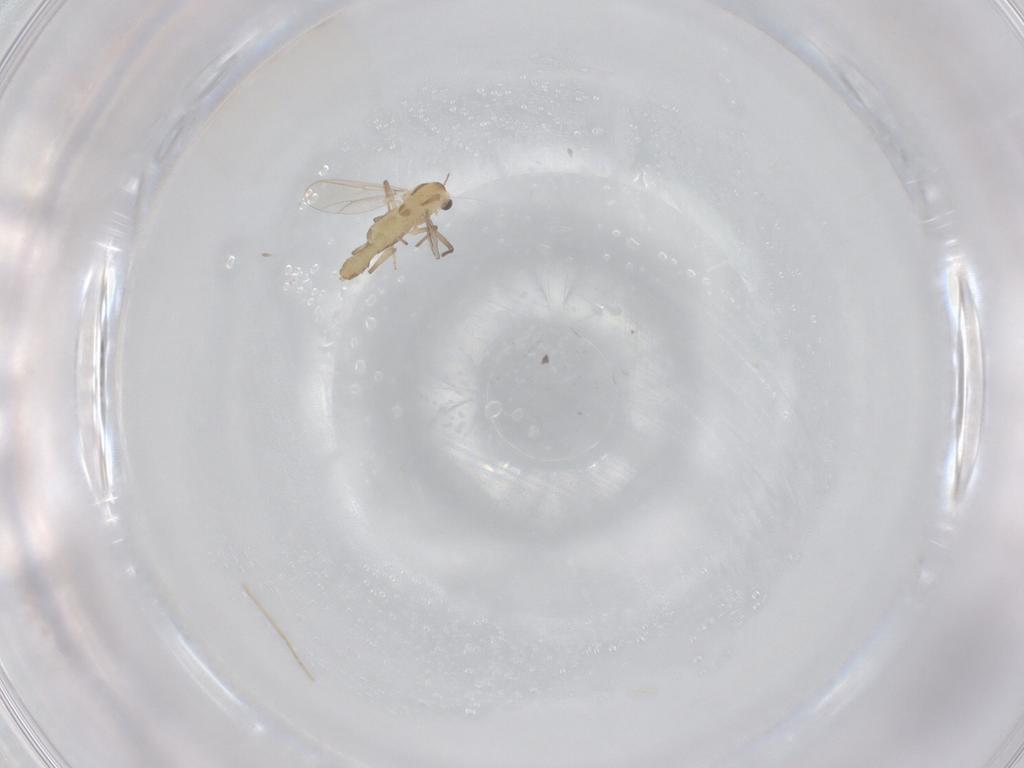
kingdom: Animalia
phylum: Arthropoda
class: Insecta
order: Diptera
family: Chironomidae
